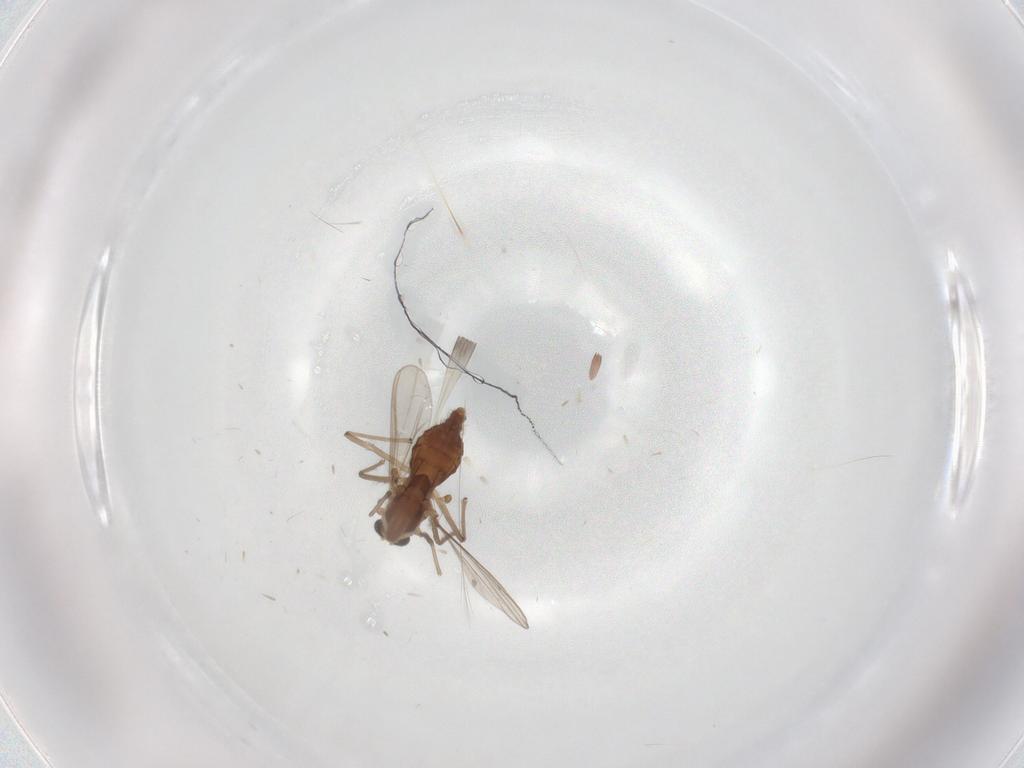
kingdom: Animalia
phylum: Arthropoda
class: Insecta
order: Diptera
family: Chironomidae
